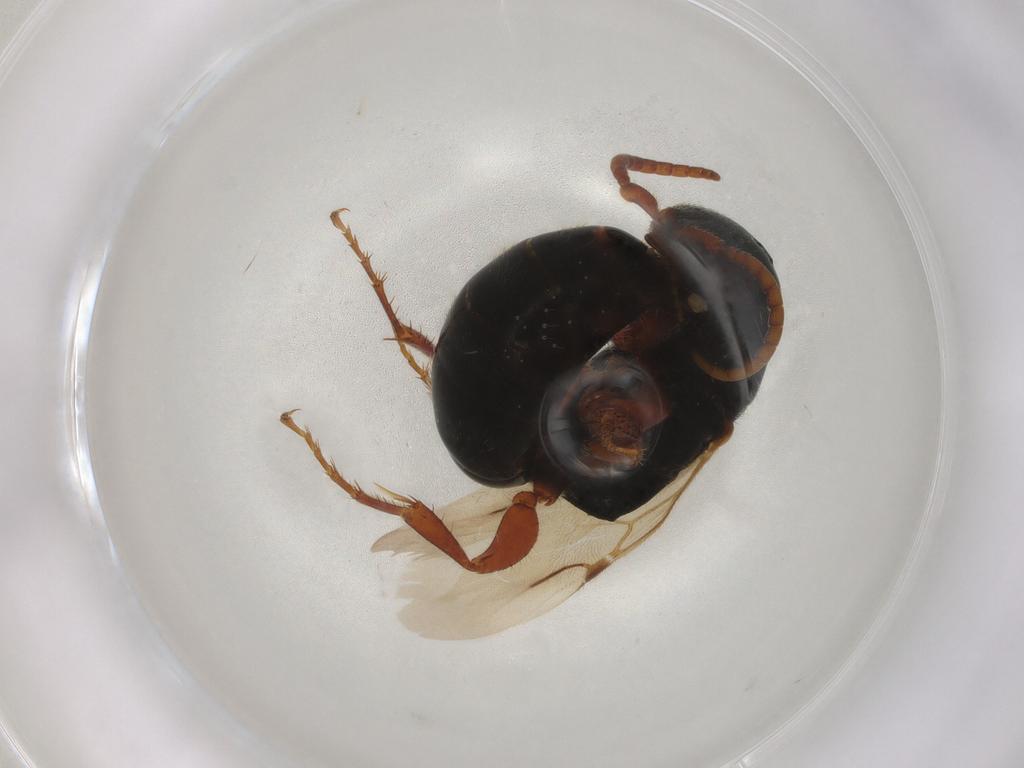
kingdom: Animalia
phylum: Arthropoda
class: Insecta
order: Hymenoptera
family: Bethylidae
